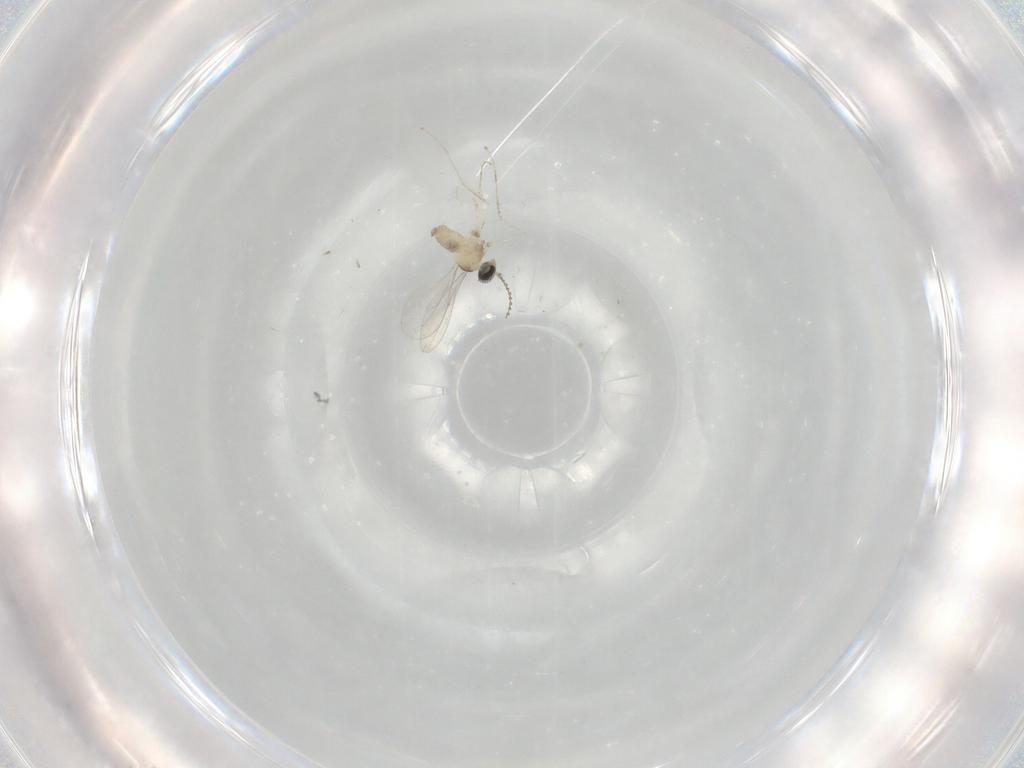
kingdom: Animalia
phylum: Arthropoda
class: Insecta
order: Diptera
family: Cecidomyiidae
